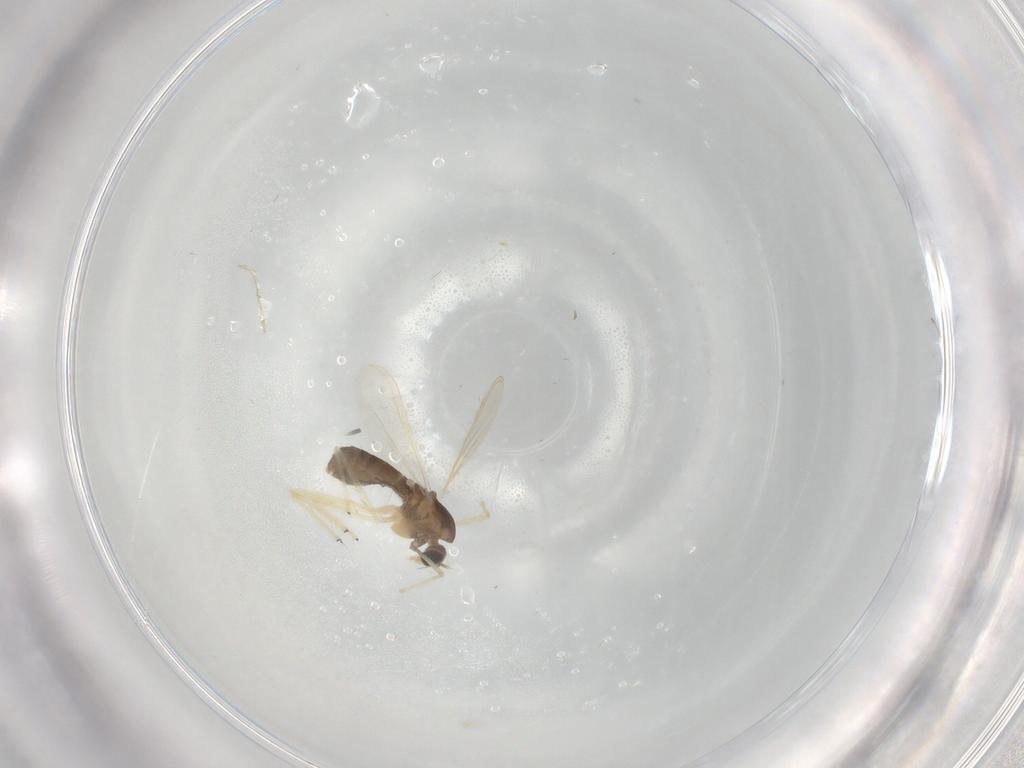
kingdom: Animalia
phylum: Arthropoda
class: Insecta
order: Diptera
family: Chironomidae
